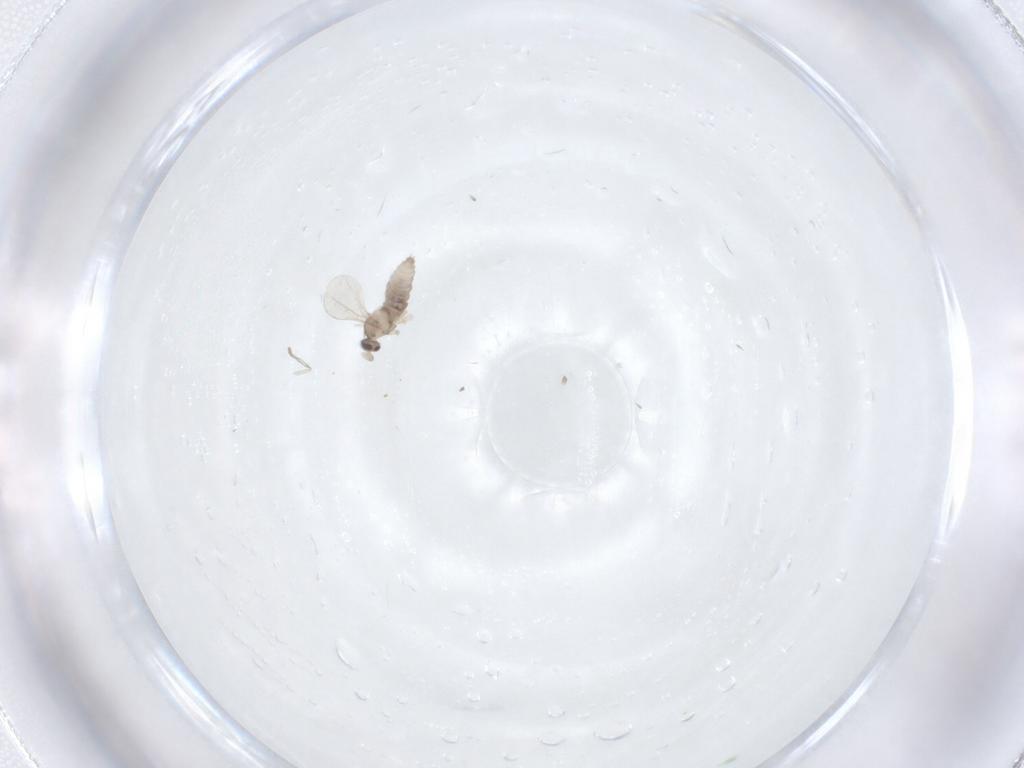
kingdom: Animalia
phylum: Arthropoda
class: Insecta
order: Diptera
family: Cecidomyiidae
